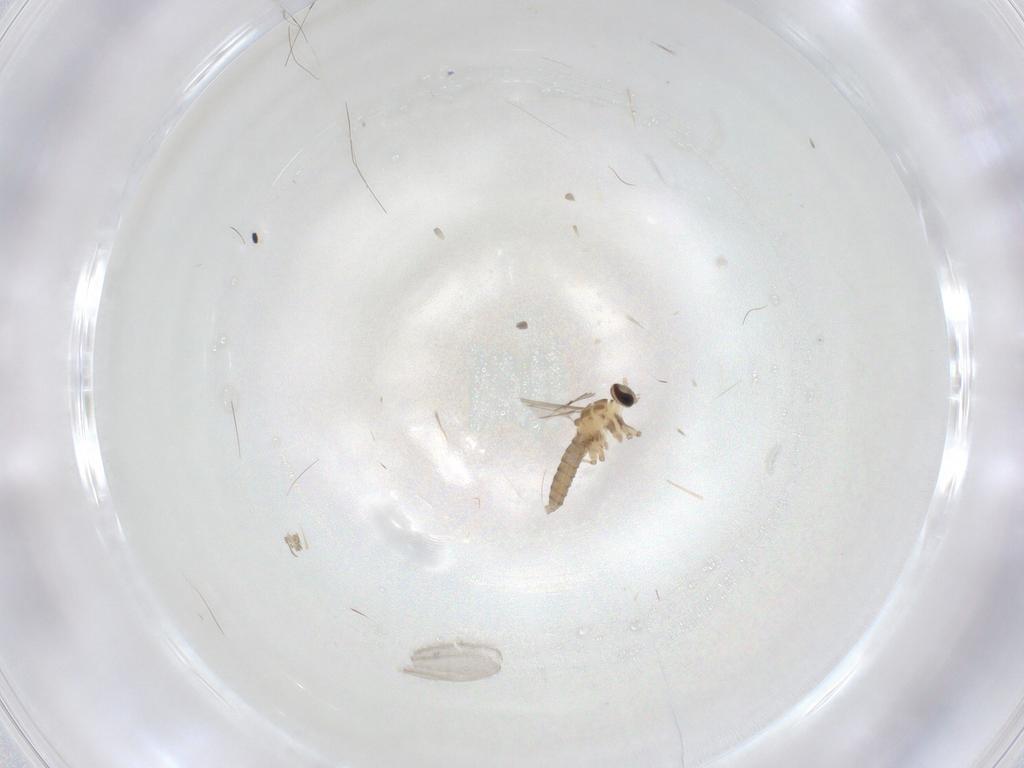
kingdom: Animalia
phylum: Arthropoda
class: Insecta
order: Diptera
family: Cecidomyiidae
